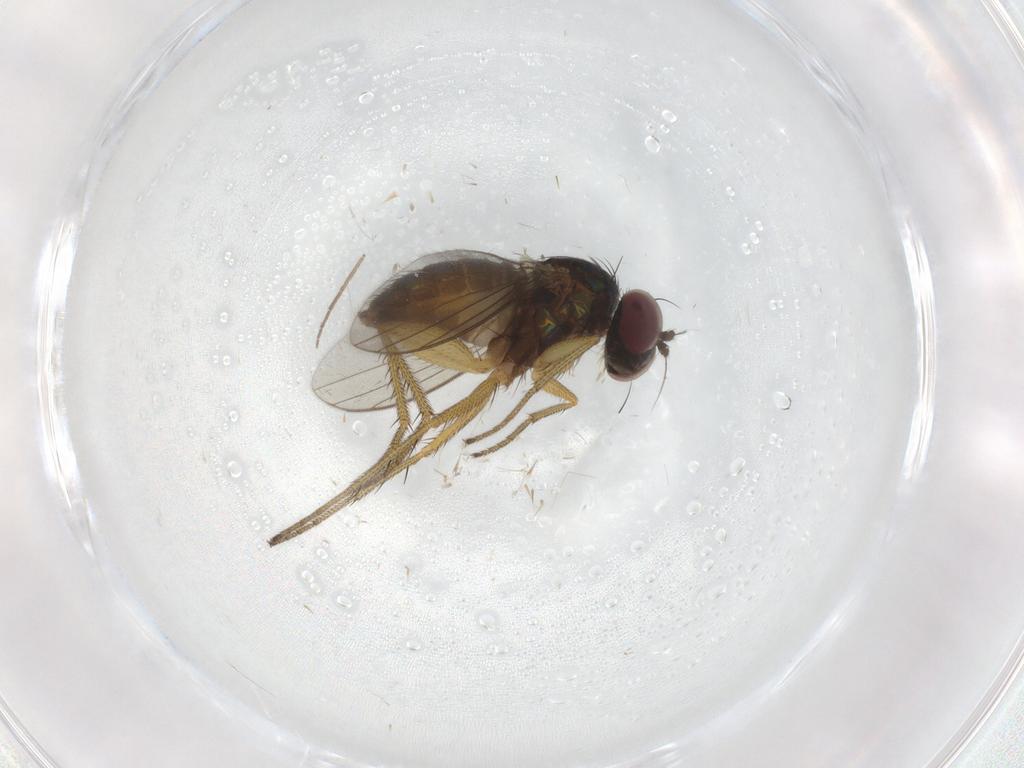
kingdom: Animalia
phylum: Arthropoda
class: Insecta
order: Diptera
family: Dolichopodidae
